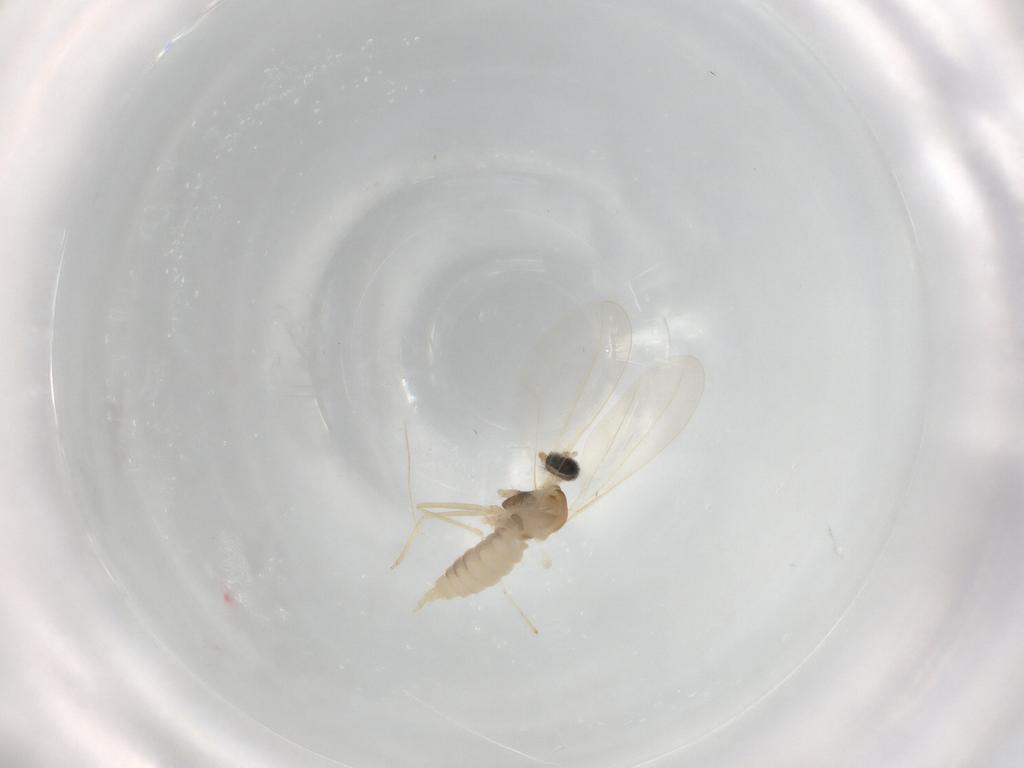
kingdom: Animalia
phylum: Arthropoda
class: Insecta
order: Diptera
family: Cecidomyiidae
